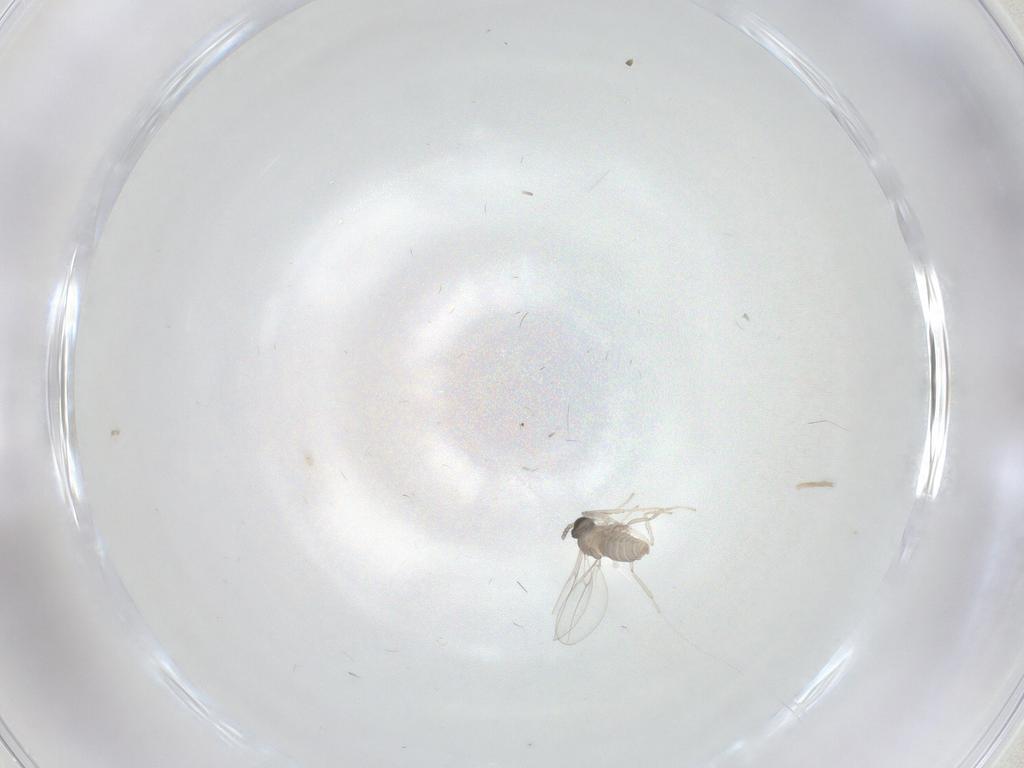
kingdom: Animalia
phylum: Arthropoda
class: Insecta
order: Diptera
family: Cecidomyiidae
